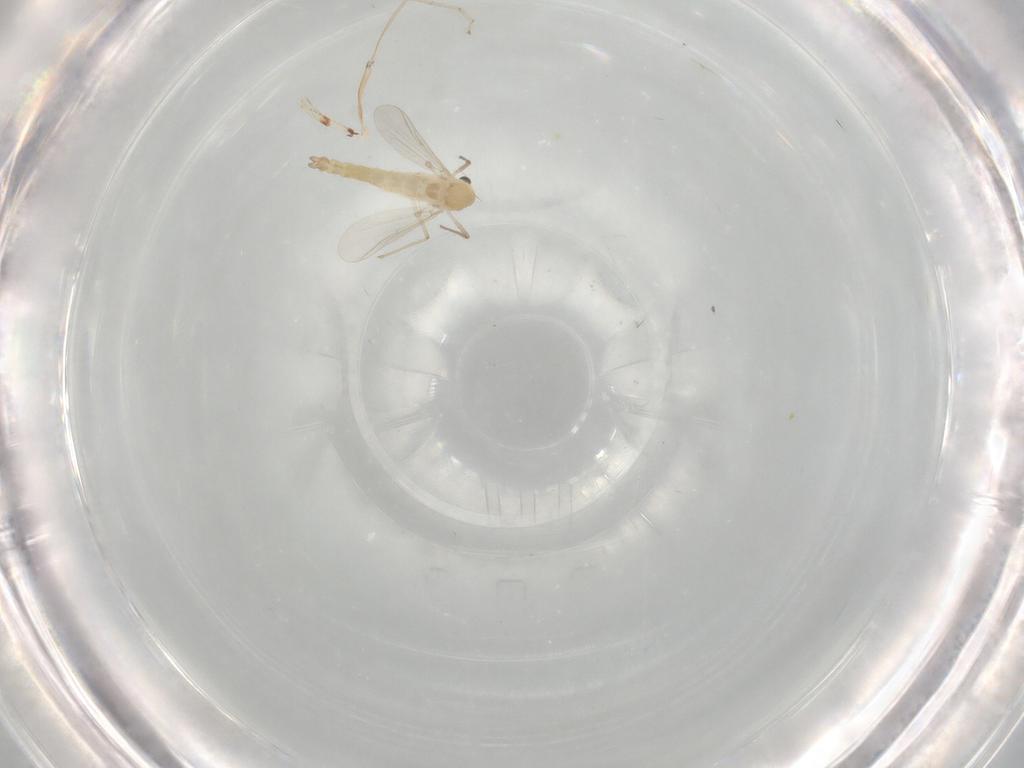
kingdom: Animalia
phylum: Arthropoda
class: Insecta
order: Diptera
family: Chironomidae
